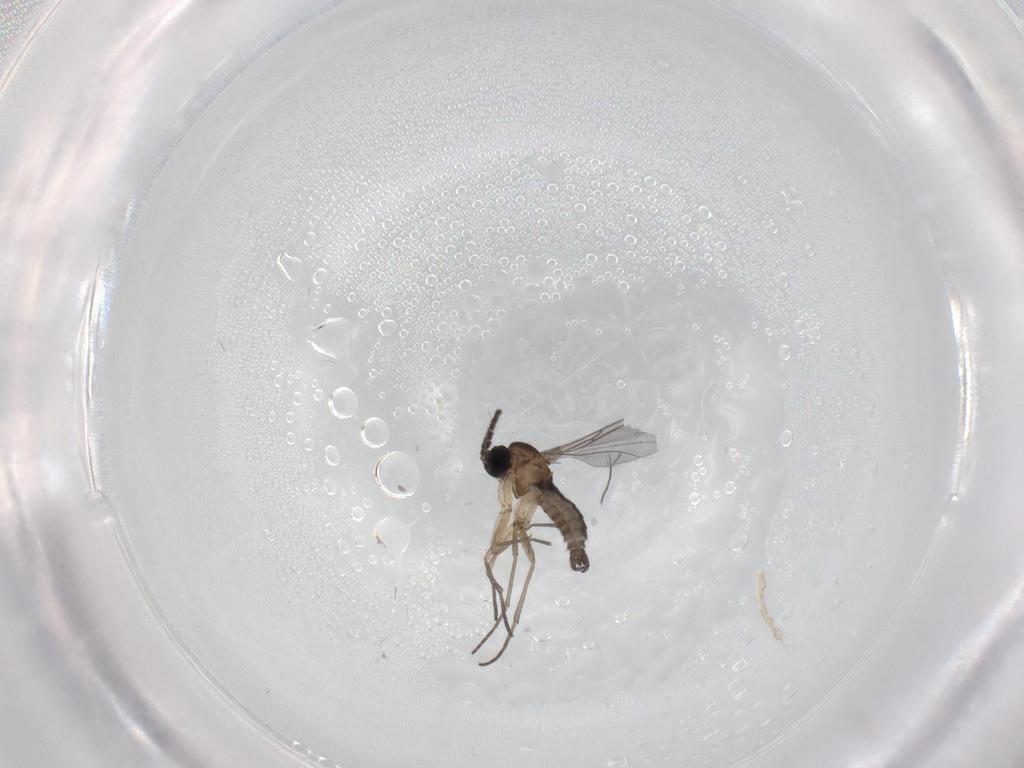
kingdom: Animalia
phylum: Arthropoda
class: Insecta
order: Diptera
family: Sciaridae
